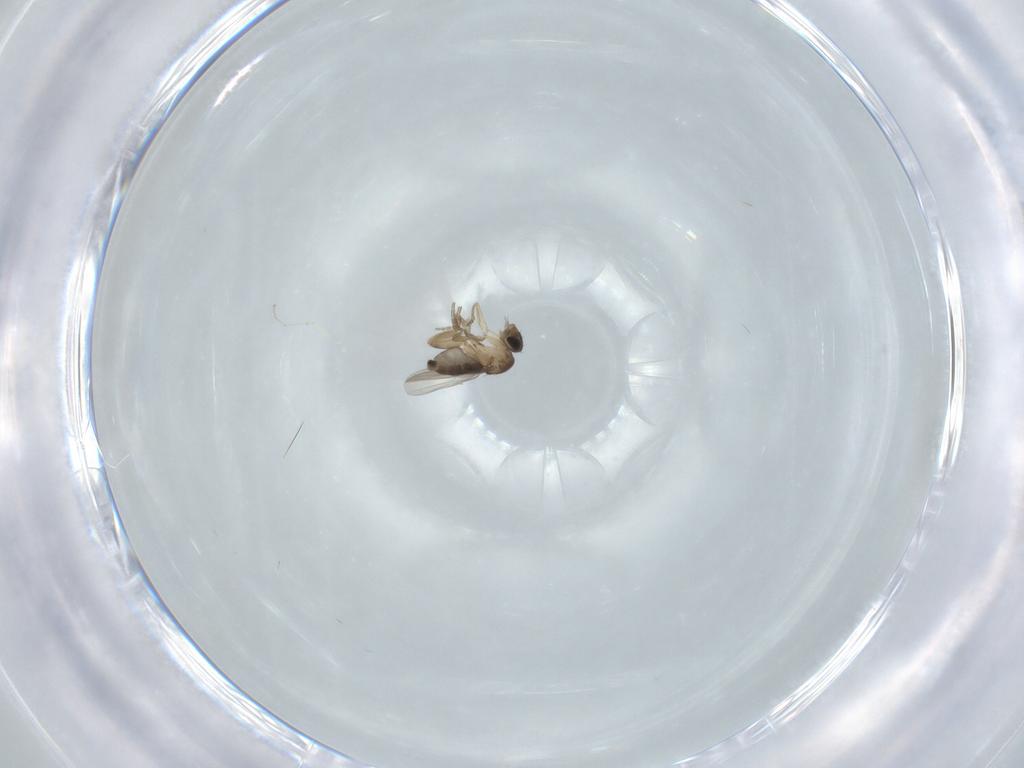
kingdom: Animalia
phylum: Arthropoda
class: Insecta
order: Diptera
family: Phoridae
